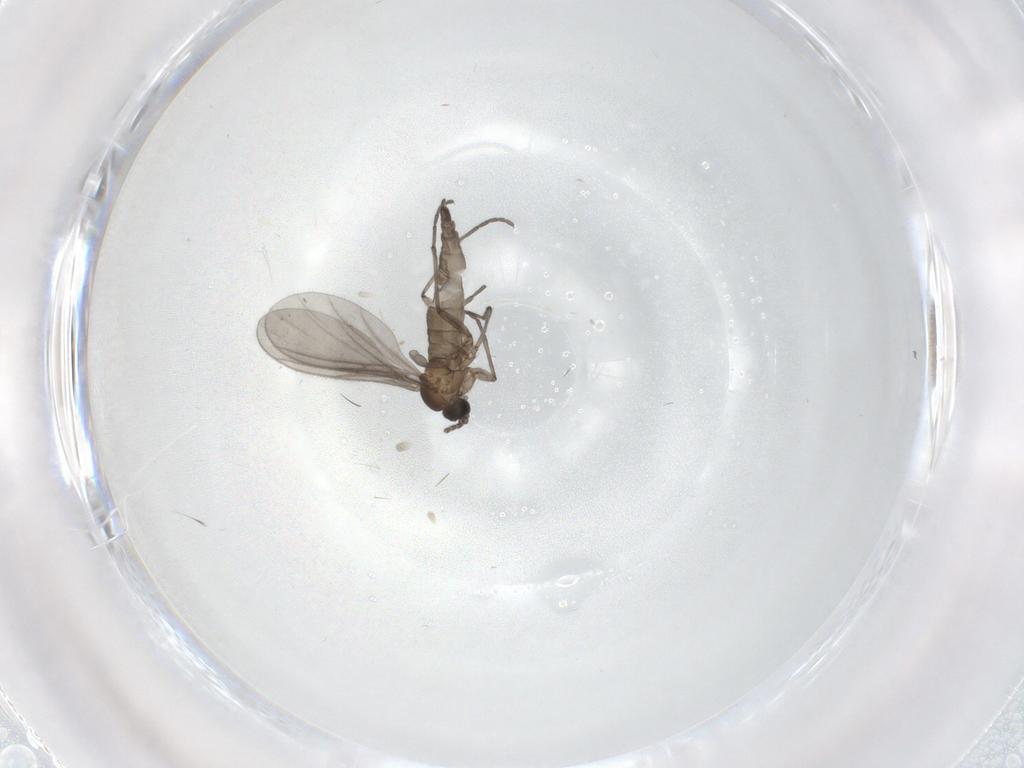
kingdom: Animalia
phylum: Arthropoda
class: Insecta
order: Diptera
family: Sciaridae
